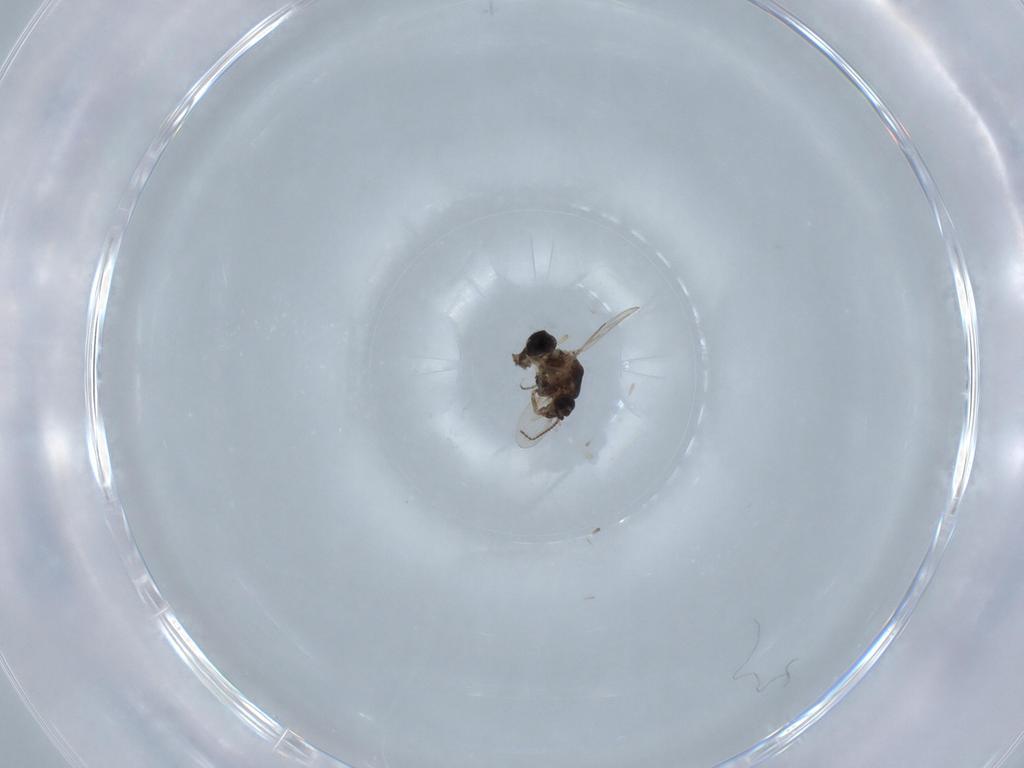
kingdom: Animalia
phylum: Arthropoda
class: Insecta
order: Diptera
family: Ceratopogonidae
